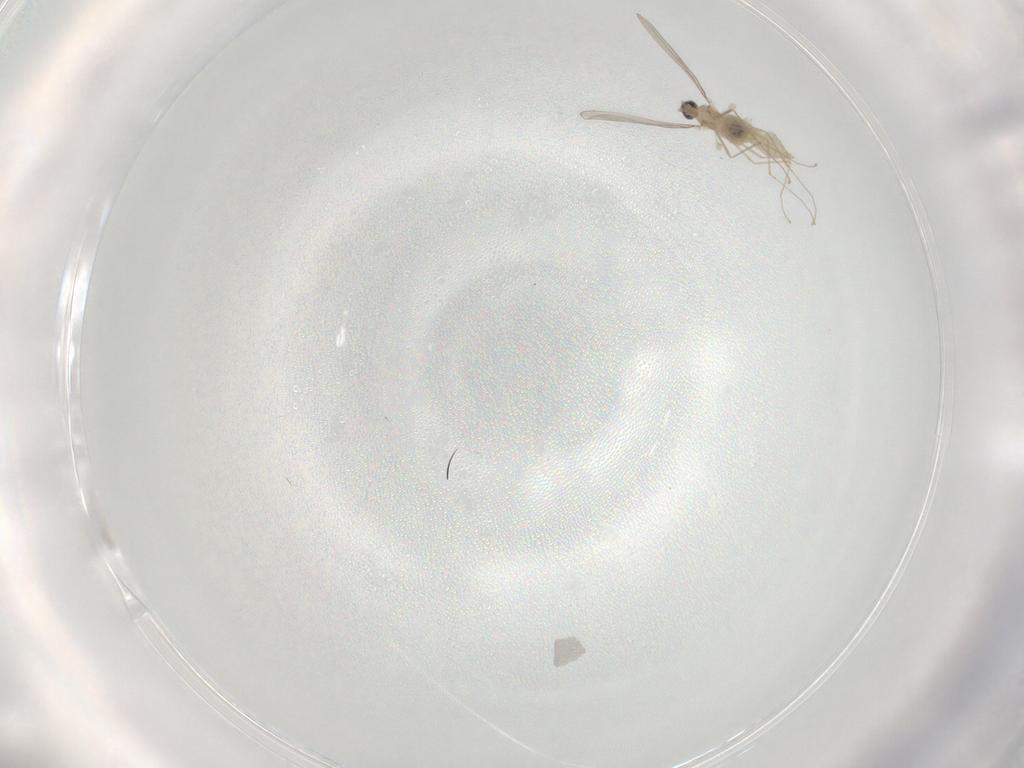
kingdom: Animalia
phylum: Arthropoda
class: Insecta
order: Diptera
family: Cecidomyiidae
